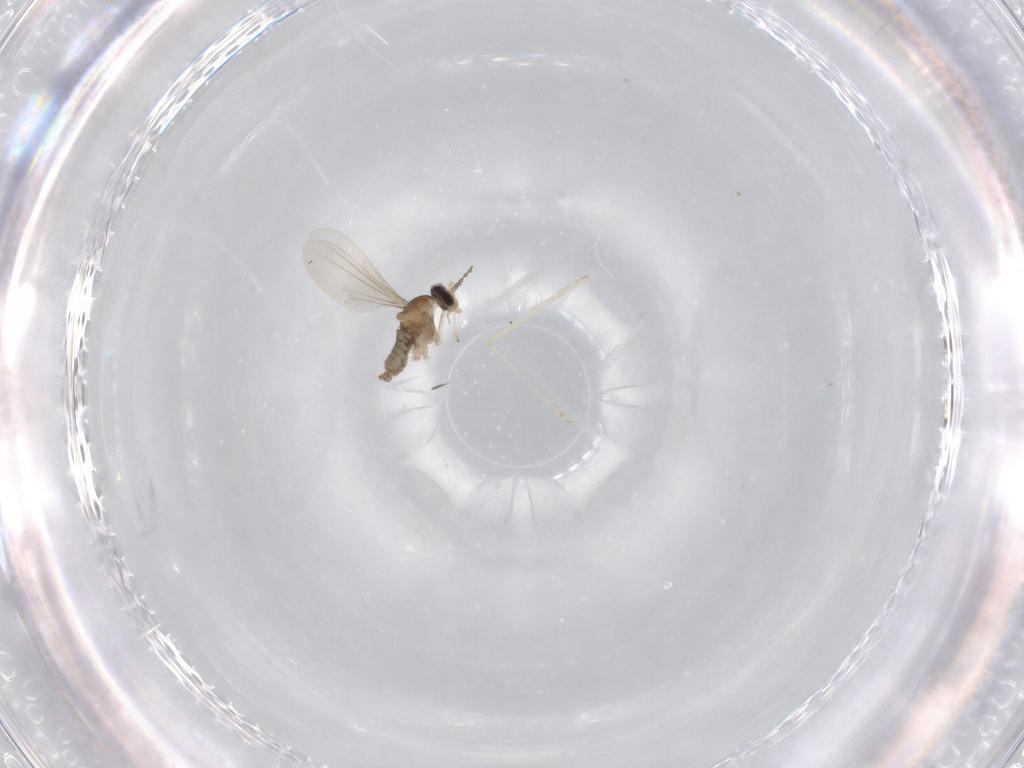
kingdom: Animalia
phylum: Arthropoda
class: Insecta
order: Diptera
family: Cecidomyiidae
